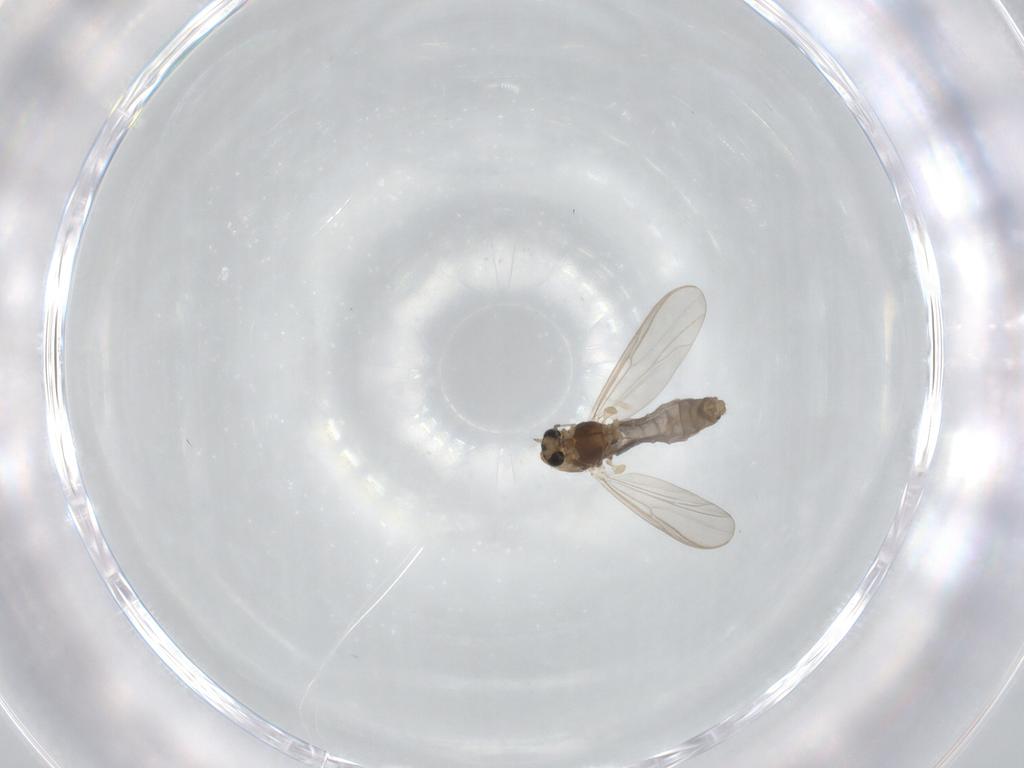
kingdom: Animalia
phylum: Arthropoda
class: Insecta
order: Diptera
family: Chironomidae
